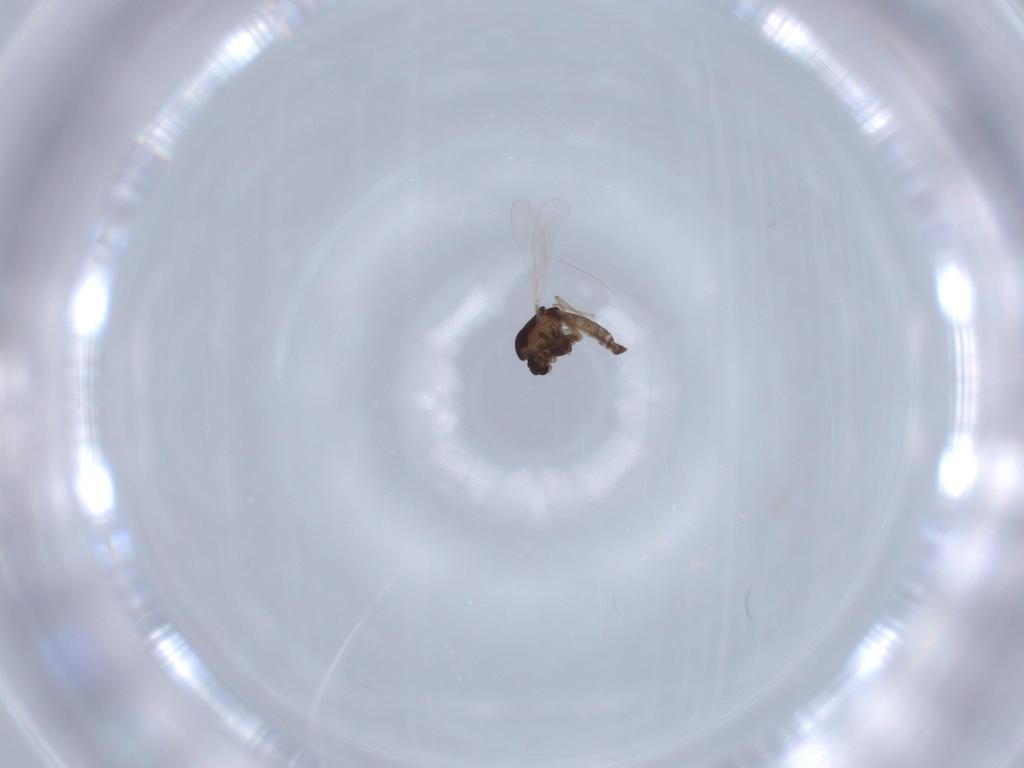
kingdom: Animalia
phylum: Arthropoda
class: Insecta
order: Diptera
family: Chironomidae
